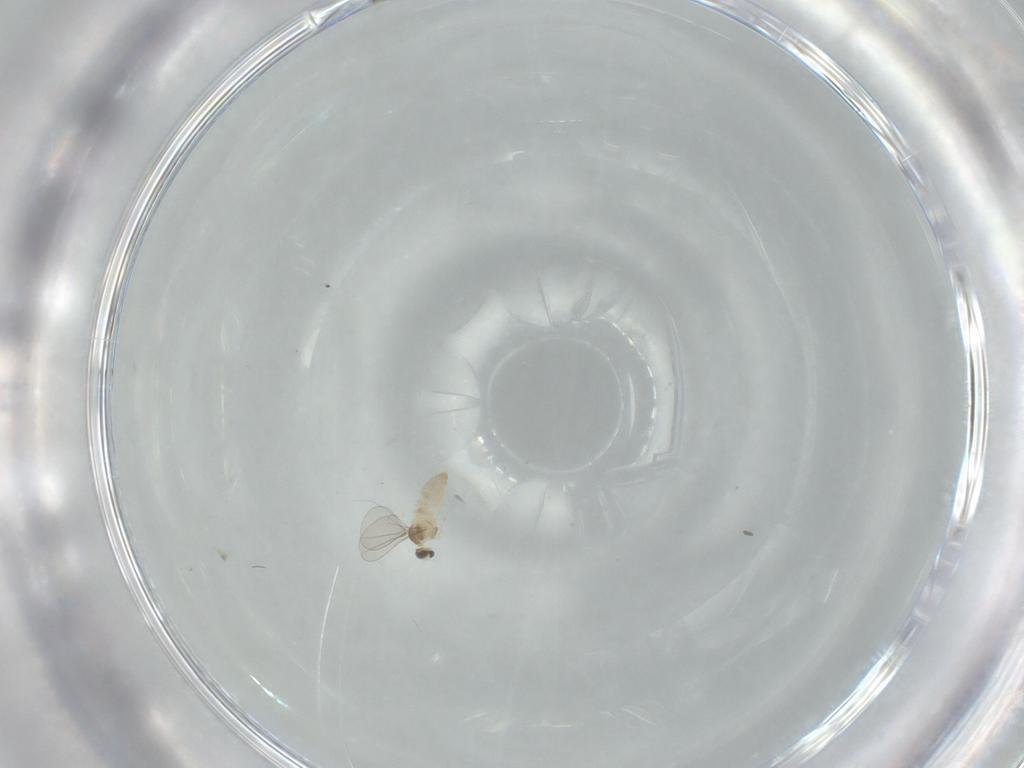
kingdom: Animalia
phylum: Arthropoda
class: Insecta
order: Diptera
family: Cecidomyiidae
